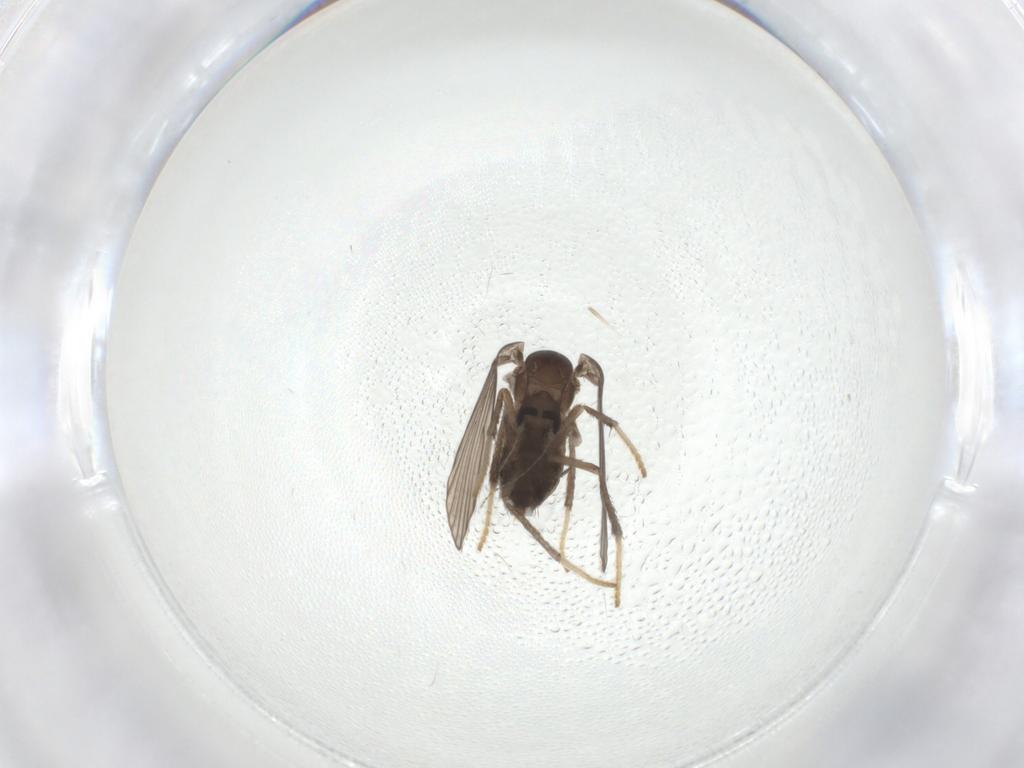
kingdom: Animalia
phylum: Arthropoda
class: Insecta
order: Diptera
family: Psychodidae
